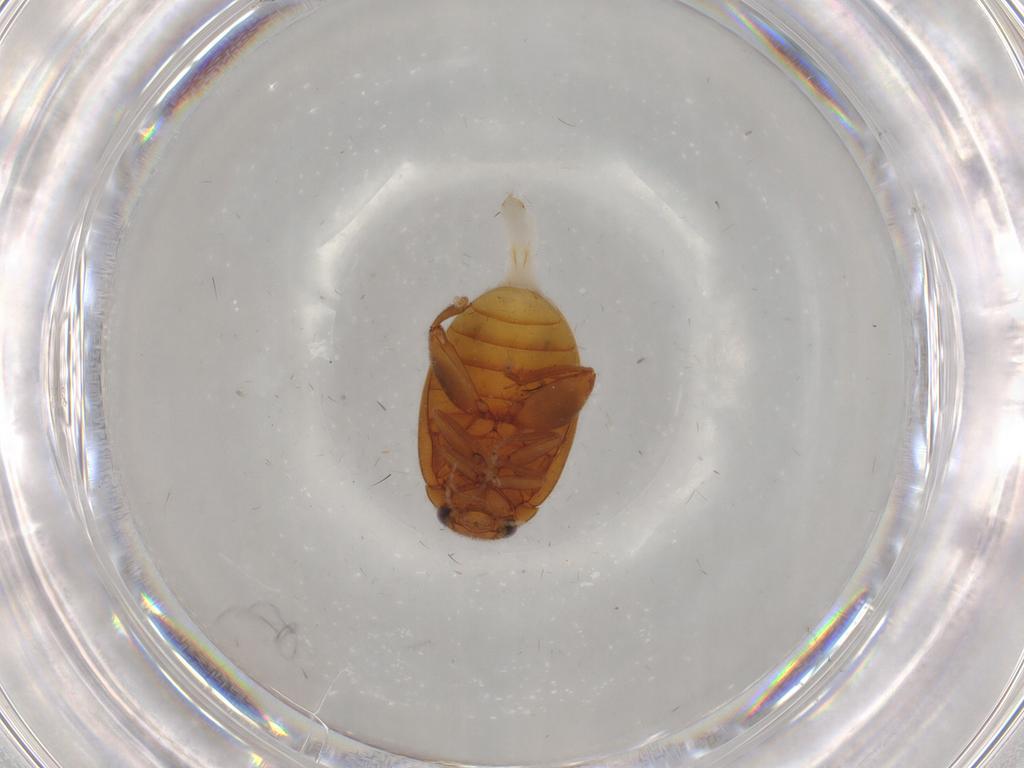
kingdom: Animalia
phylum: Arthropoda
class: Insecta
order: Coleoptera
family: Scirtidae
